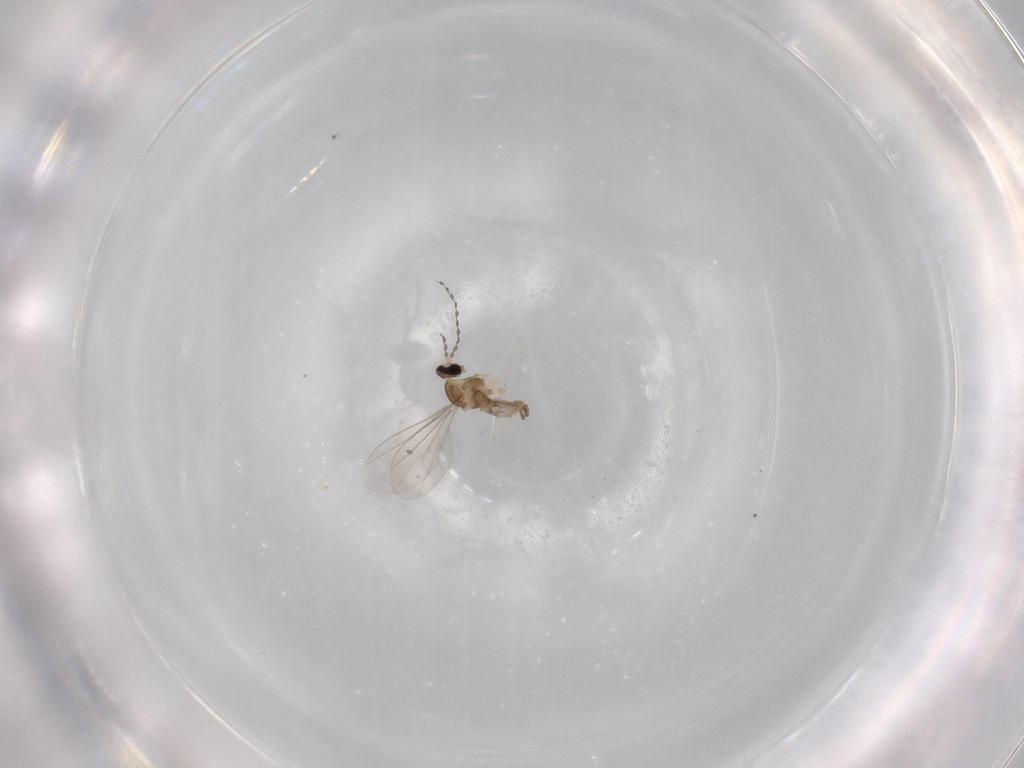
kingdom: Animalia
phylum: Arthropoda
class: Insecta
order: Diptera
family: Cecidomyiidae
